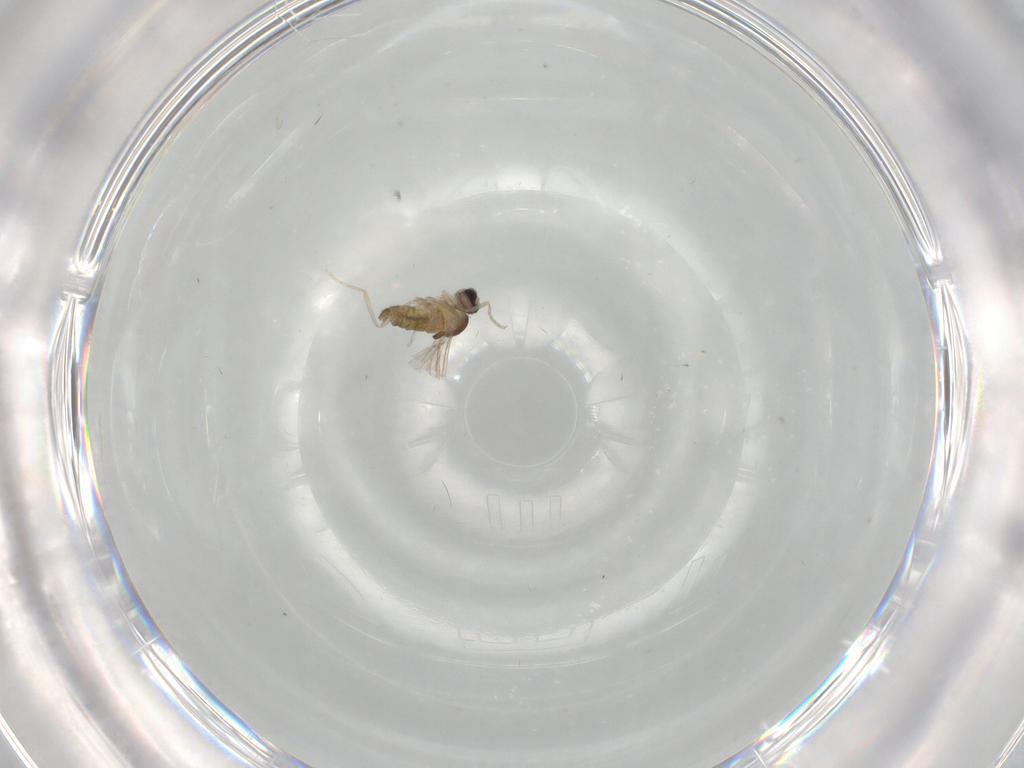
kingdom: Animalia
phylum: Arthropoda
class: Insecta
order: Diptera
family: Cecidomyiidae
